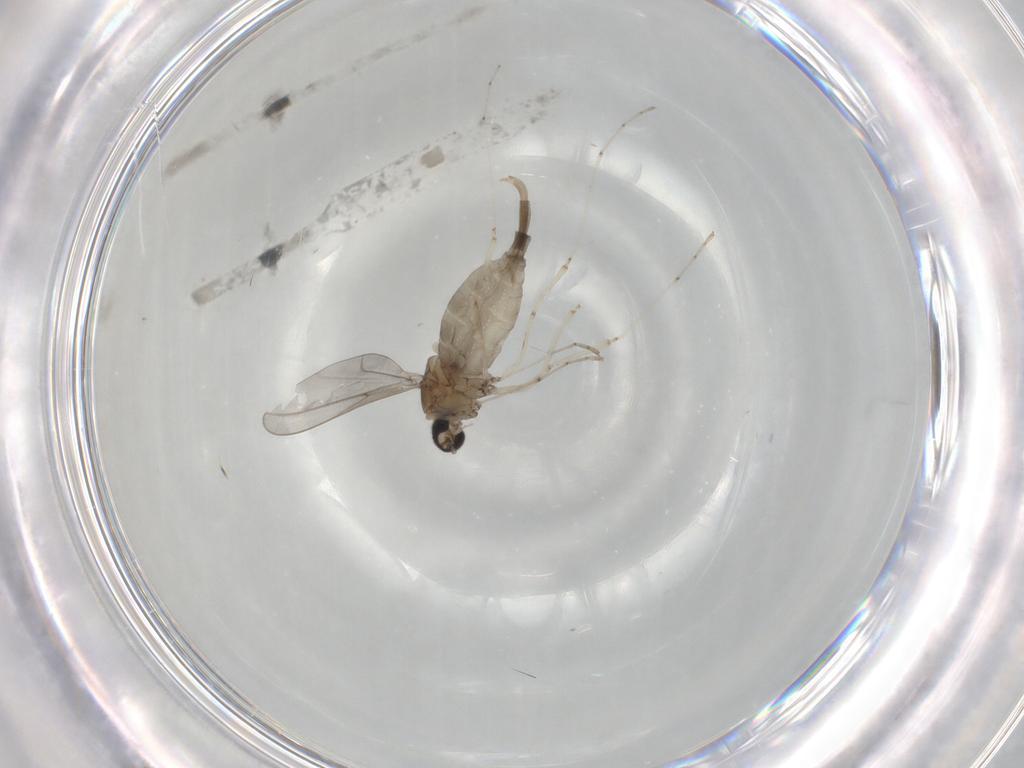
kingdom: Animalia
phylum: Arthropoda
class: Insecta
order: Diptera
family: Cecidomyiidae
